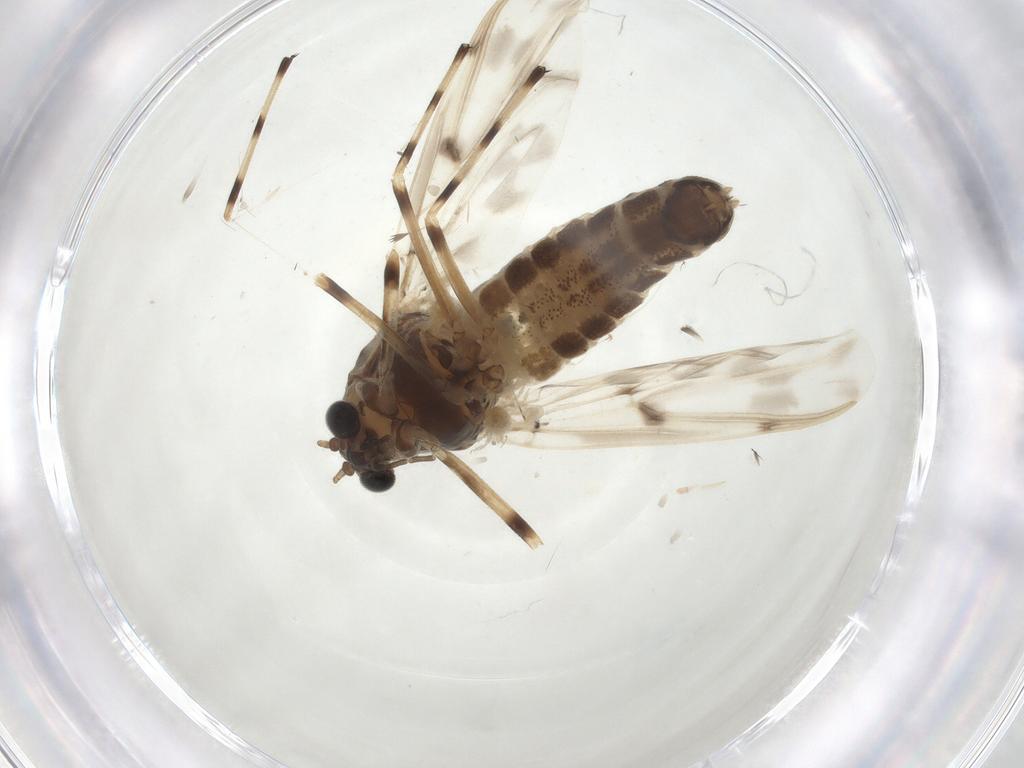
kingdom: Animalia
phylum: Arthropoda
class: Insecta
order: Diptera
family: Chironomidae
